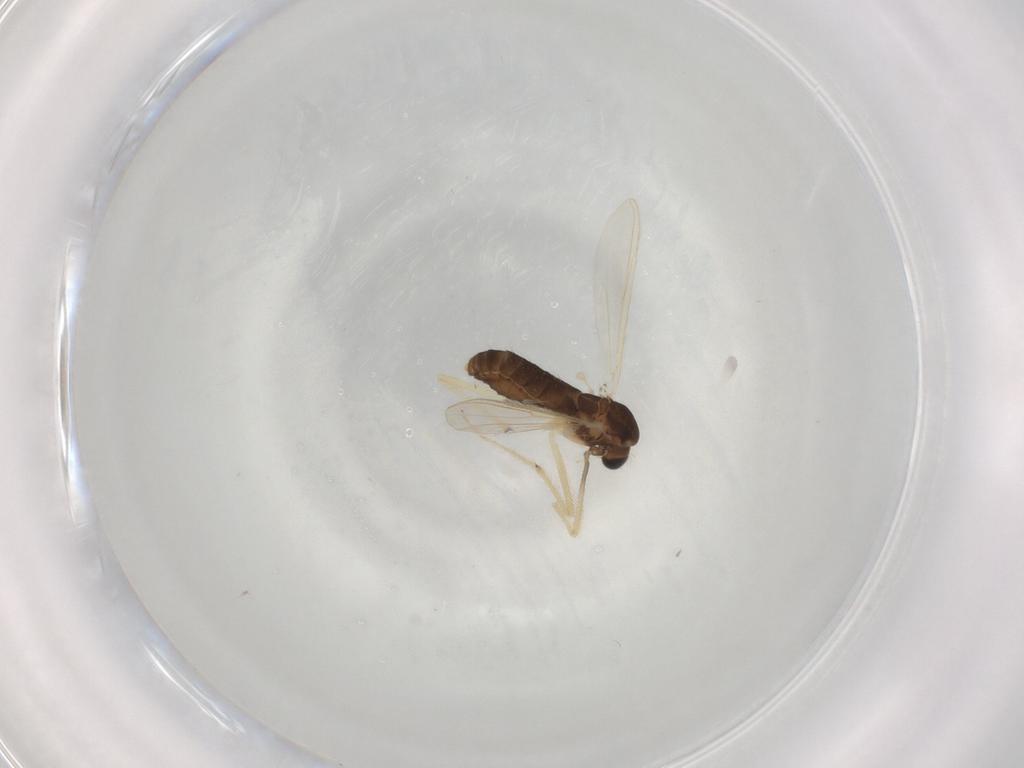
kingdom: Animalia
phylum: Arthropoda
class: Insecta
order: Diptera
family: Chironomidae
